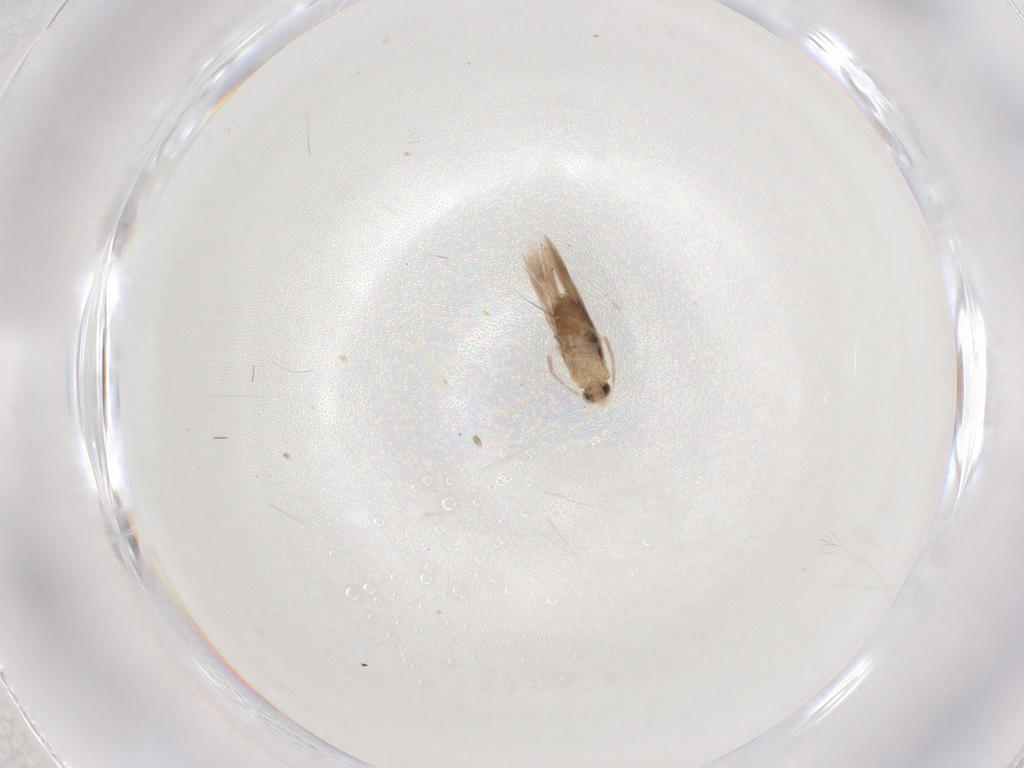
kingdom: Animalia
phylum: Arthropoda
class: Insecta
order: Lepidoptera
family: Nepticulidae
